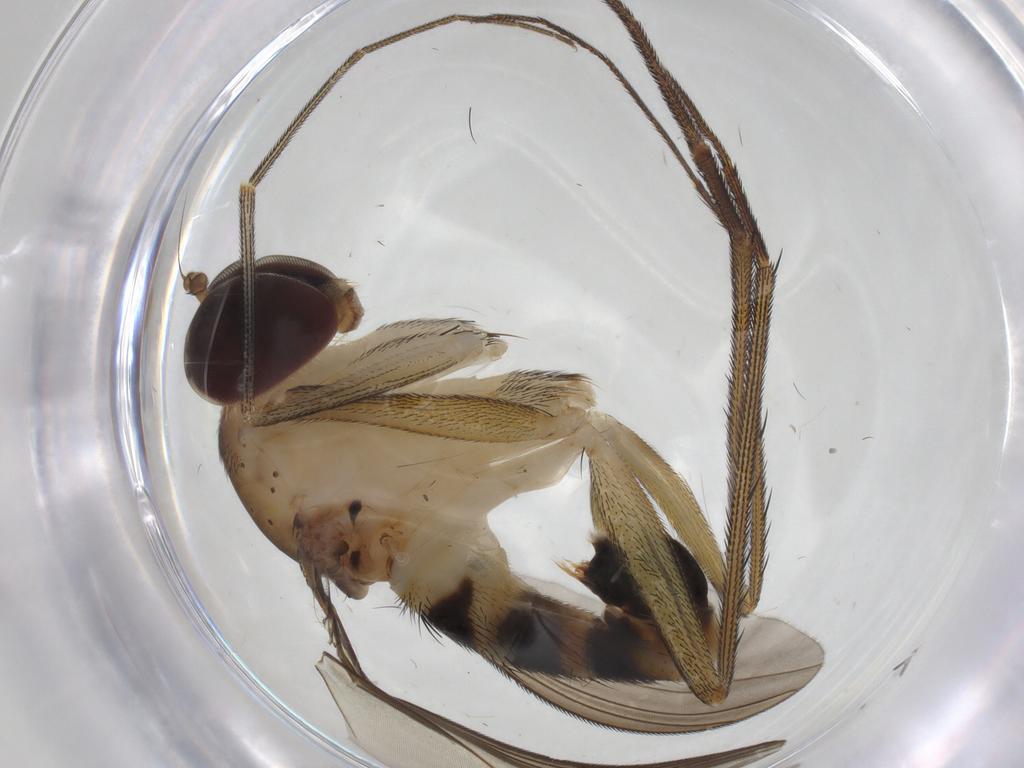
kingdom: Animalia
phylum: Arthropoda
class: Insecta
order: Diptera
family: Dolichopodidae
